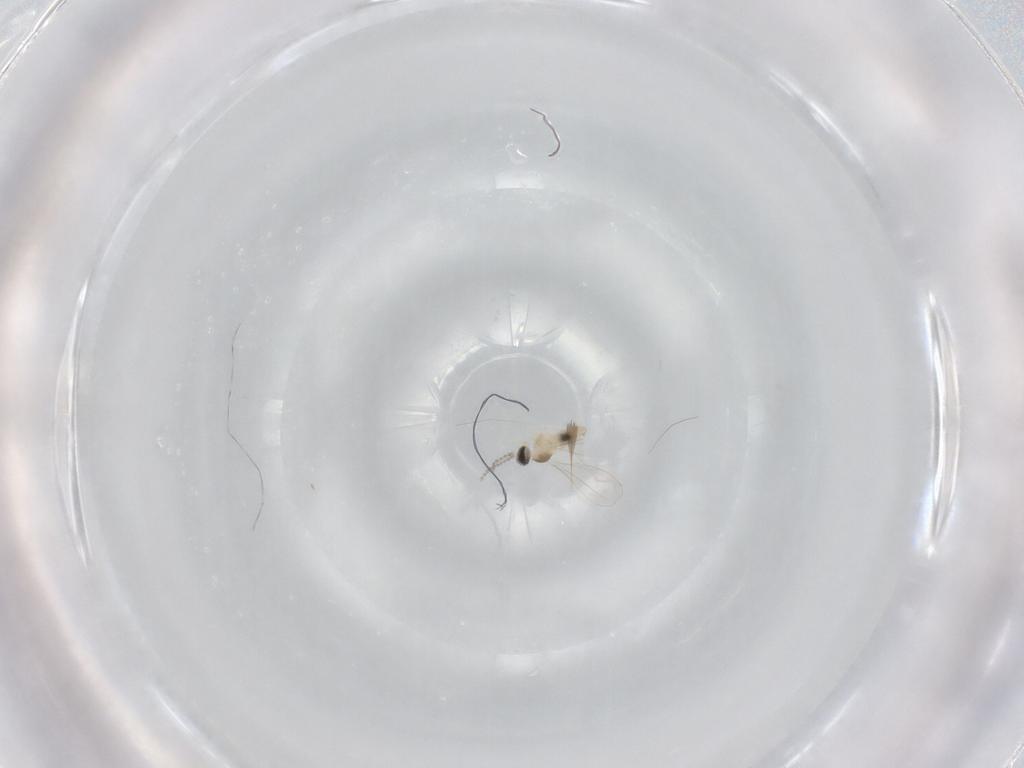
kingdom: Animalia
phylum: Arthropoda
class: Insecta
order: Diptera
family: Cecidomyiidae
